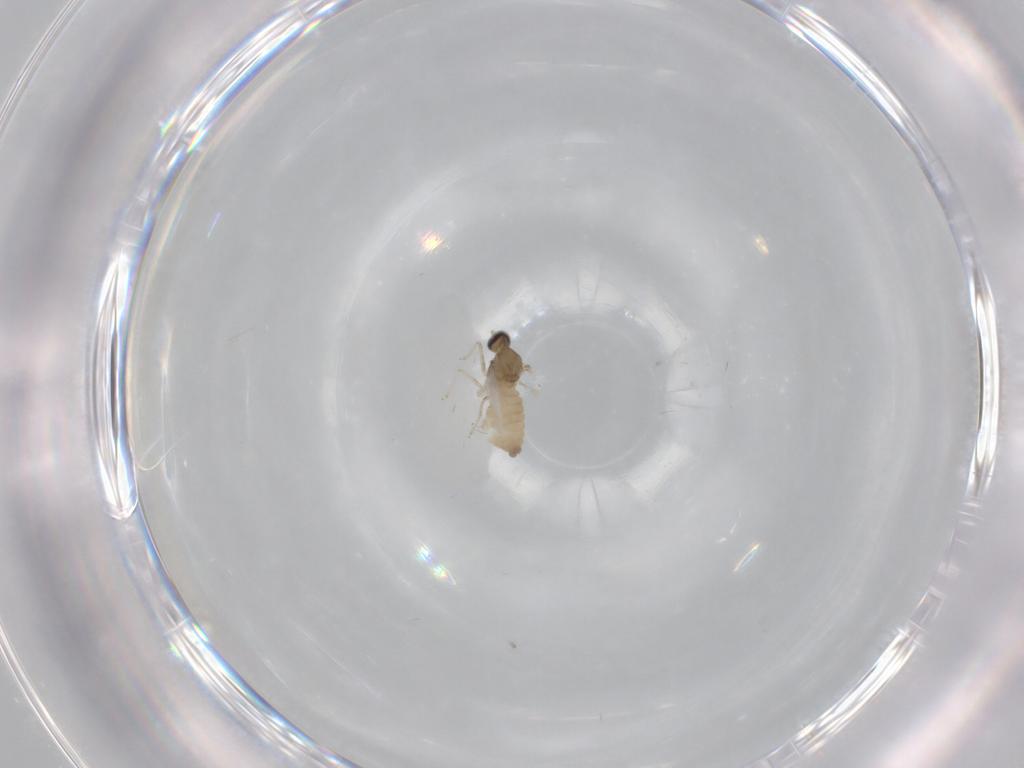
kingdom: Animalia
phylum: Arthropoda
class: Insecta
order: Diptera
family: Cecidomyiidae
